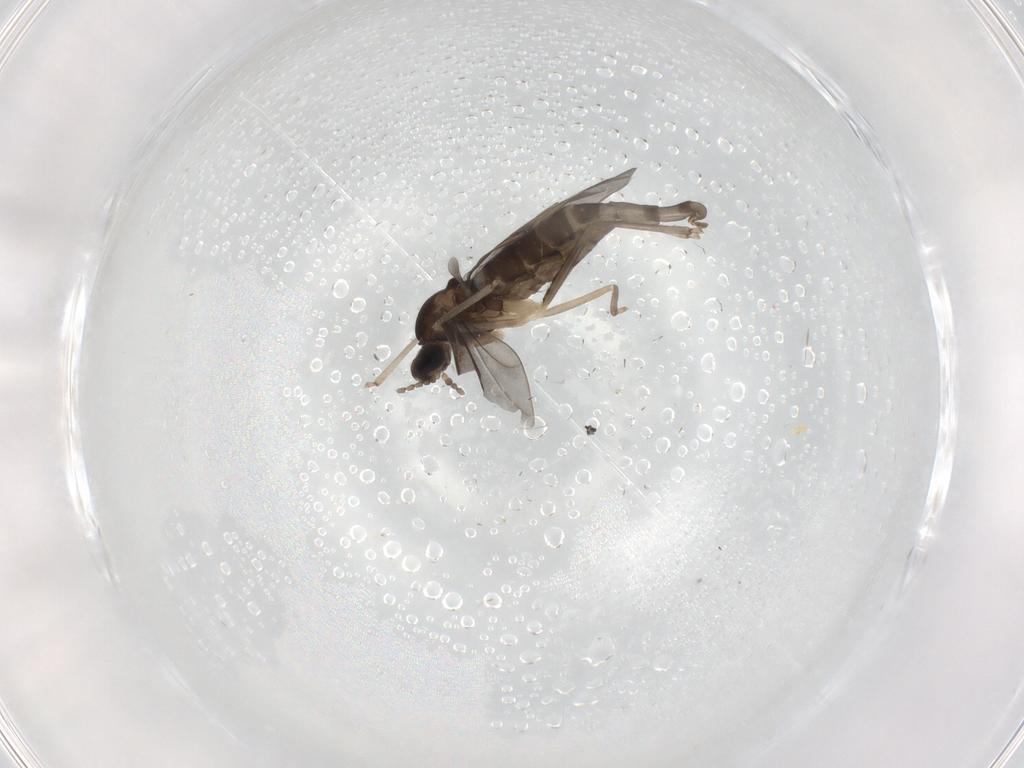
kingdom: Animalia
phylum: Arthropoda
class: Insecta
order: Diptera
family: Cecidomyiidae
